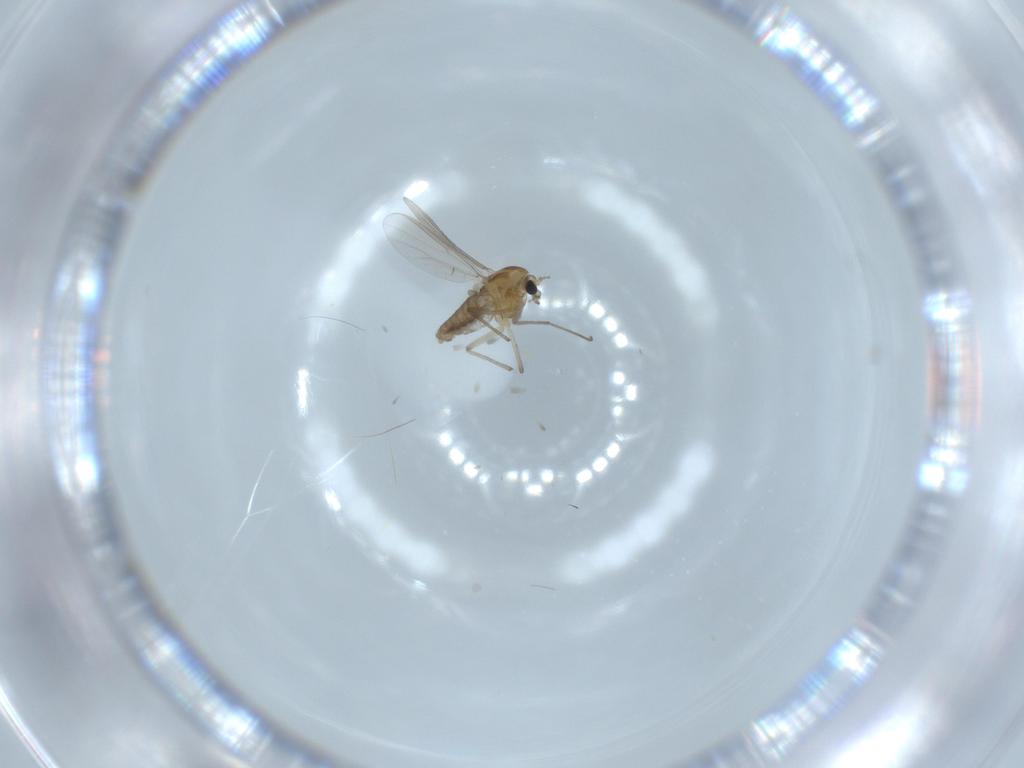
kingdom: Animalia
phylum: Arthropoda
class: Insecta
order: Diptera
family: Chironomidae
